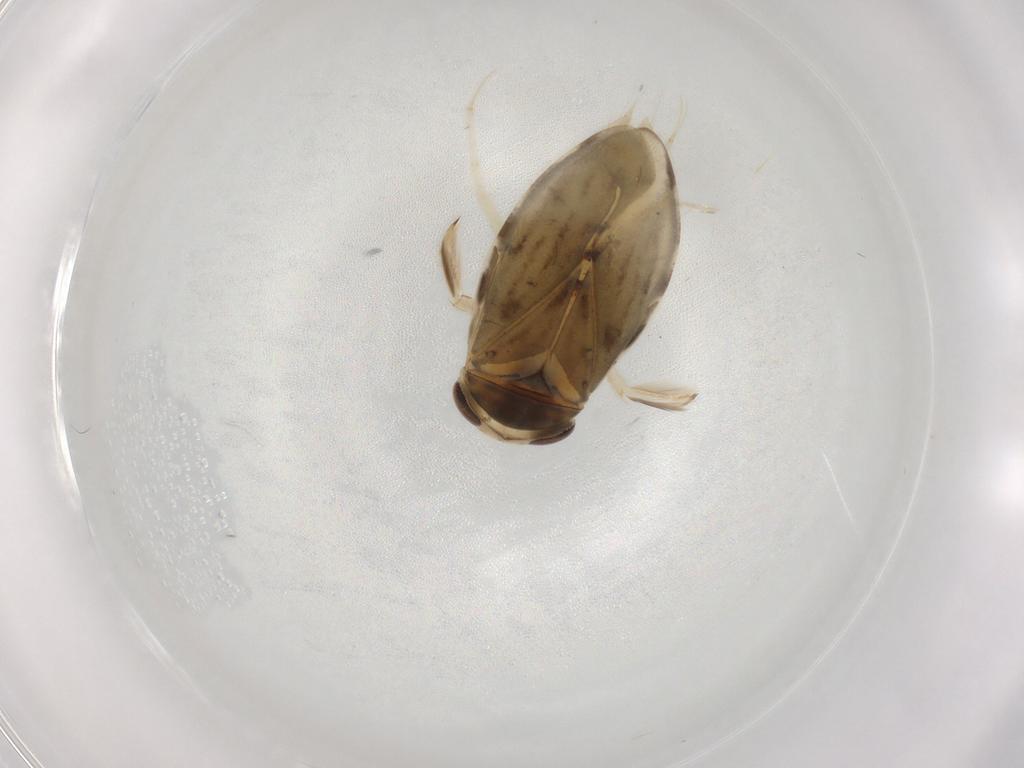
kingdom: Animalia
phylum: Arthropoda
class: Insecta
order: Hemiptera
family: Corixidae
